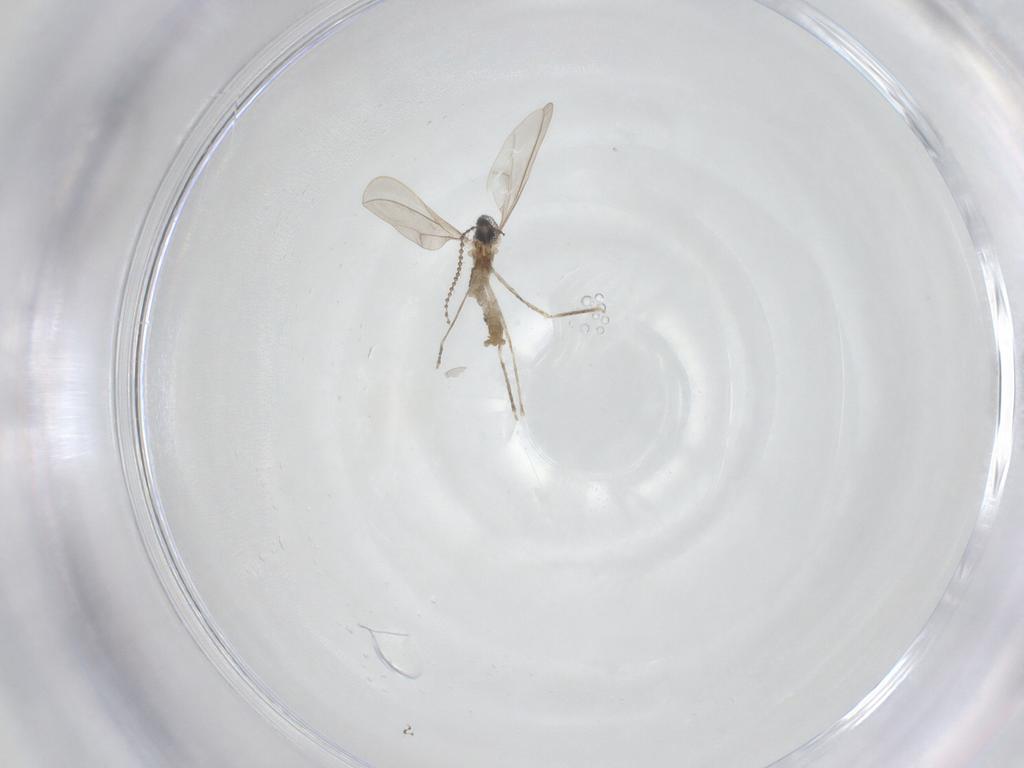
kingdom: Animalia
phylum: Arthropoda
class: Insecta
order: Diptera
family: Cecidomyiidae
